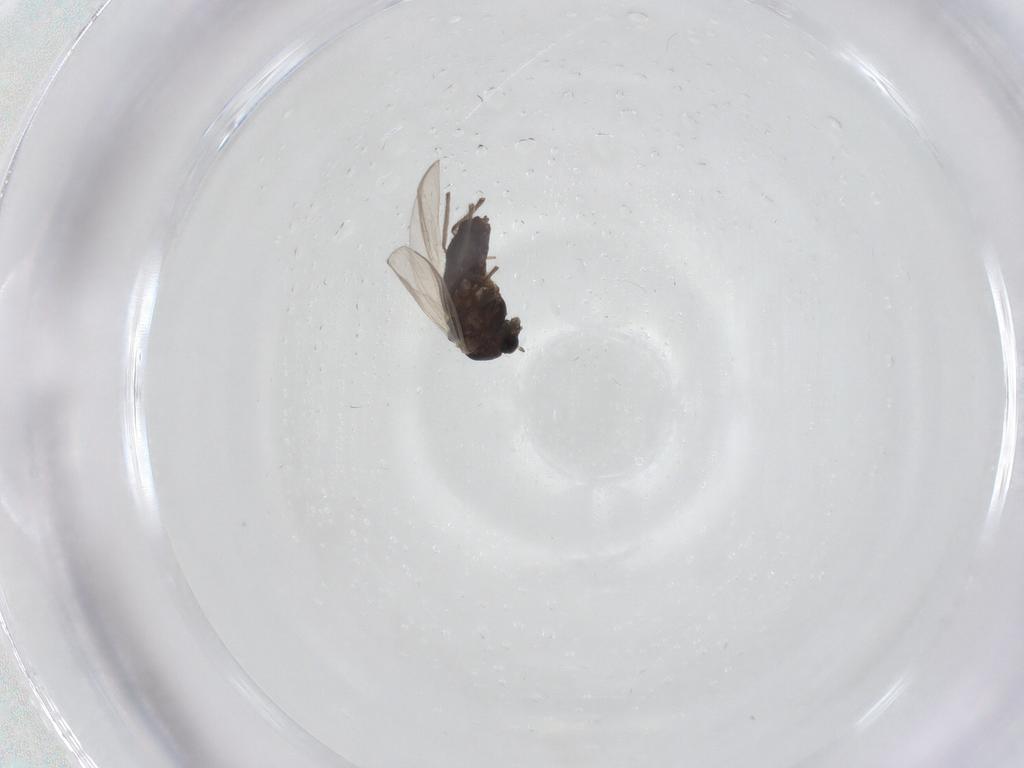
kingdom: Animalia
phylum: Arthropoda
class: Insecta
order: Diptera
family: Chironomidae
